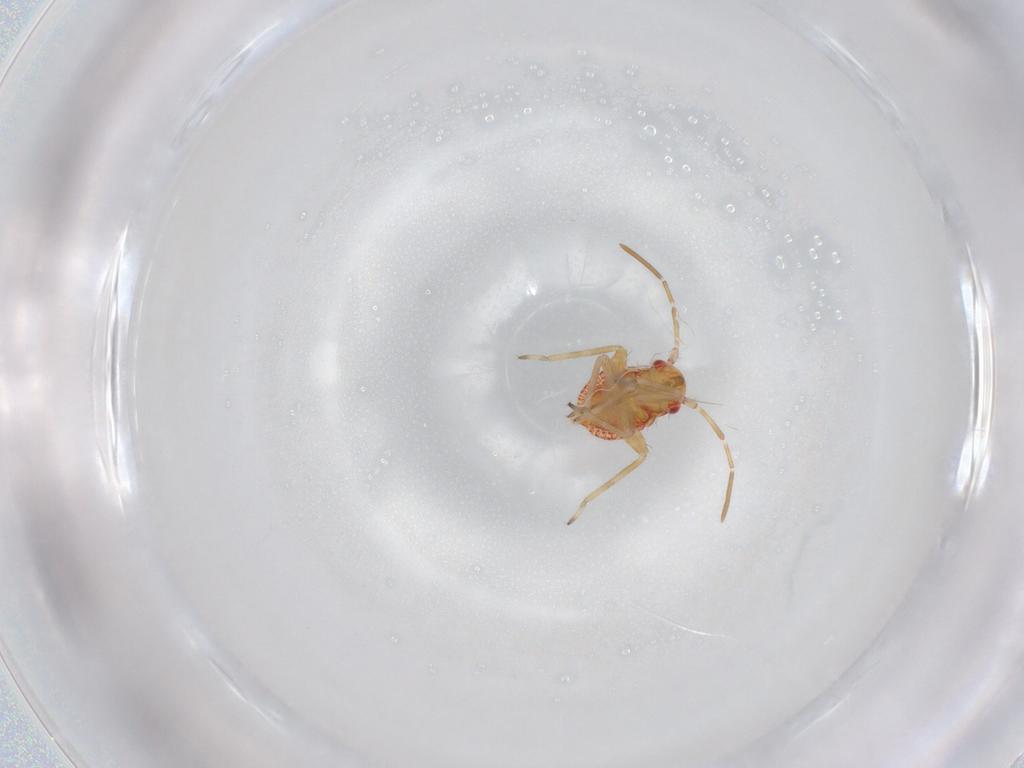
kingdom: Animalia
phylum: Arthropoda
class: Insecta
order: Hemiptera
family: Miridae
